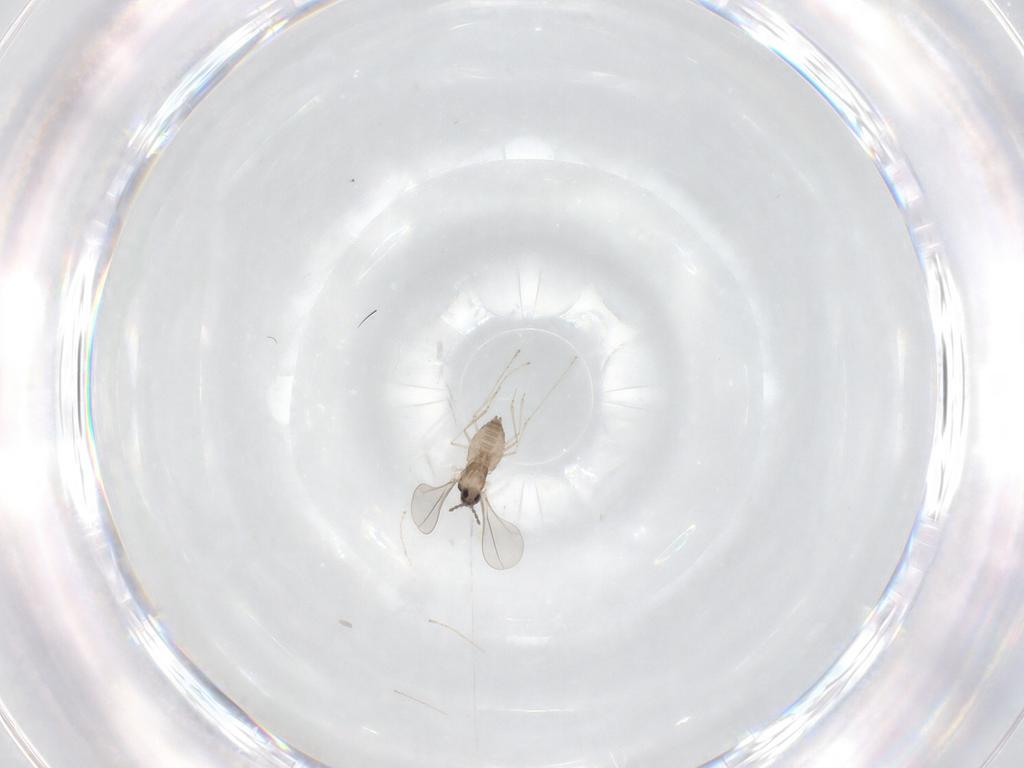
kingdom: Animalia
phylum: Arthropoda
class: Insecta
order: Diptera
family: Cecidomyiidae
